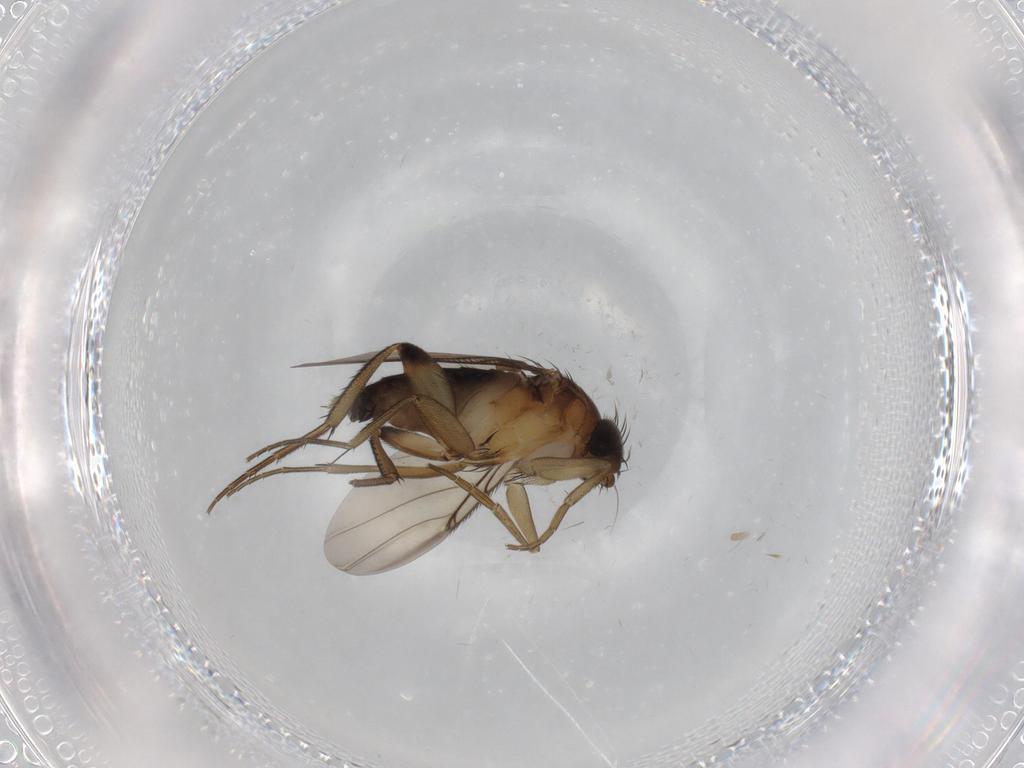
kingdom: Animalia
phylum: Arthropoda
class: Insecta
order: Diptera
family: Phoridae
